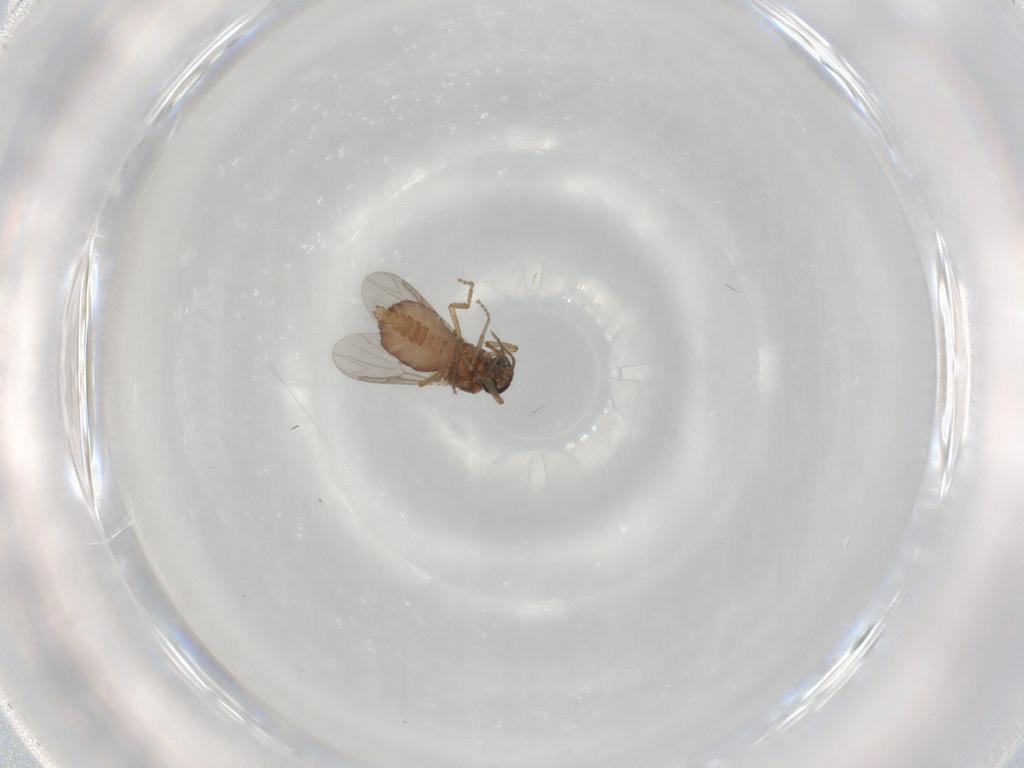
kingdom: Animalia
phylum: Arthropoda
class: Insecta
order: Diptera
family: Ceratopogonidae
